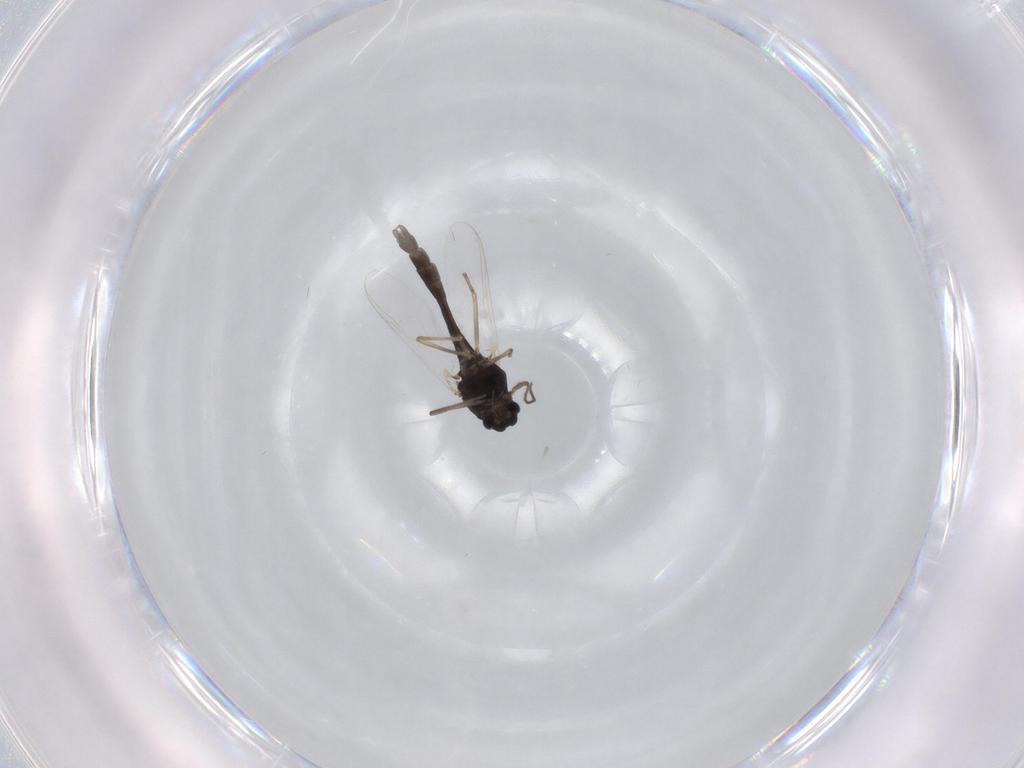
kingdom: Animalia
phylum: Arthropoda
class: Insecta
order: Diptera
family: Chironomidae
